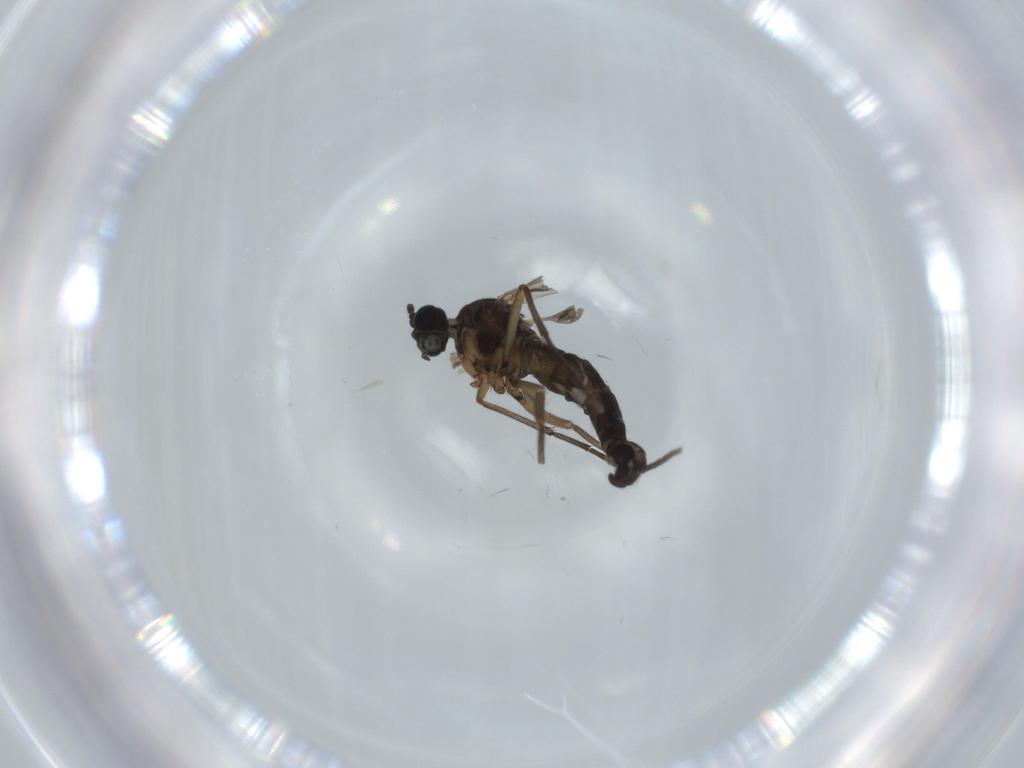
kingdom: Animalia
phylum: Arthropoda
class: Insecta
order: Diptera
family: Sciaridae
